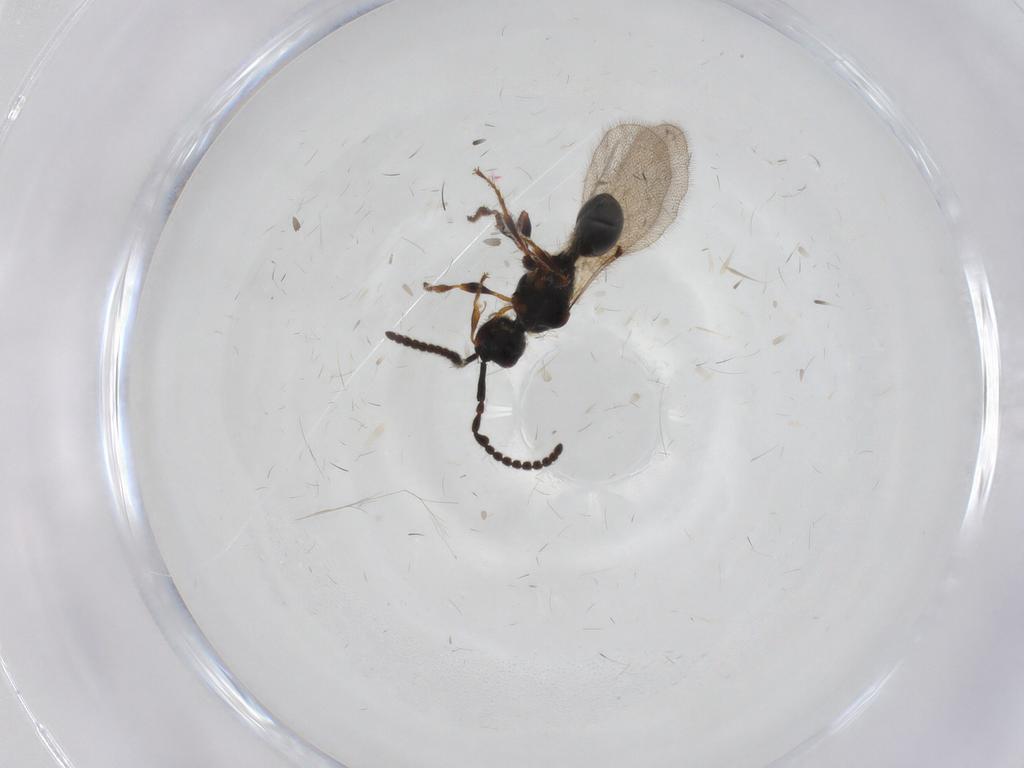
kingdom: Animalia
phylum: Arthropoda
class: Insecta
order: Hymenoptera
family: Diapriidae
